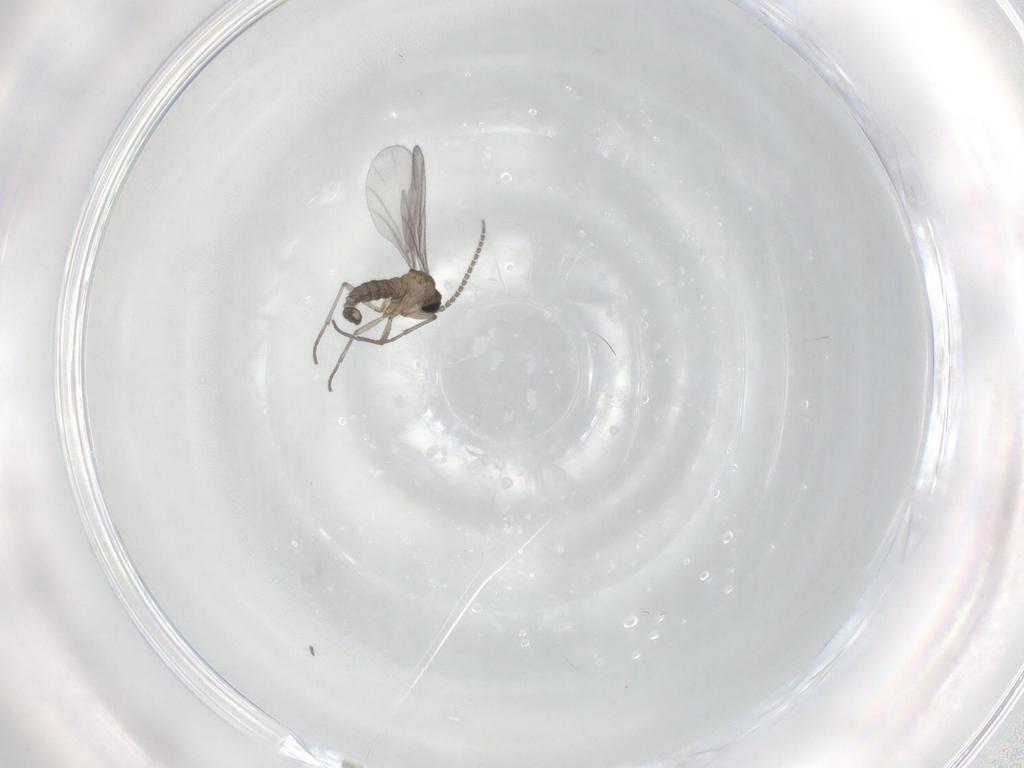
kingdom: Animalia
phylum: Arthropoda
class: Insecta
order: Diptera
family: Sciaridae
